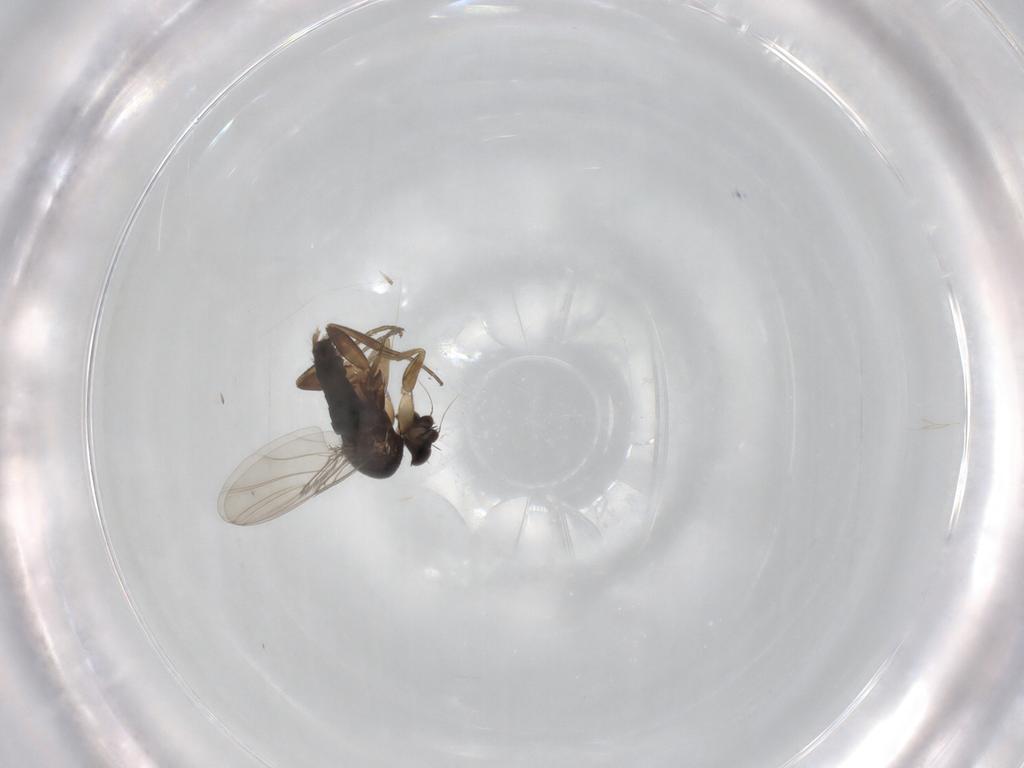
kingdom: Animalia
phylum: Arthropoda
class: Insecta
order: Diptera
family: Phoridae
